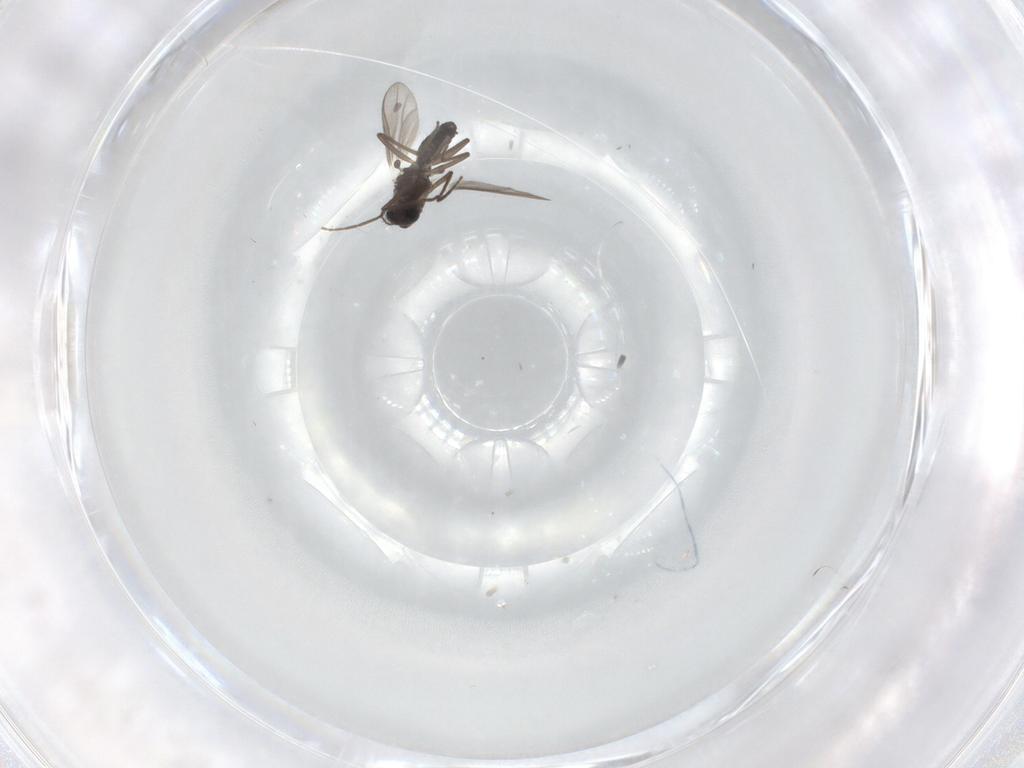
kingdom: Animalia
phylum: Arthropoda
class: Insecta
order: Diptera
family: Chironomidae
